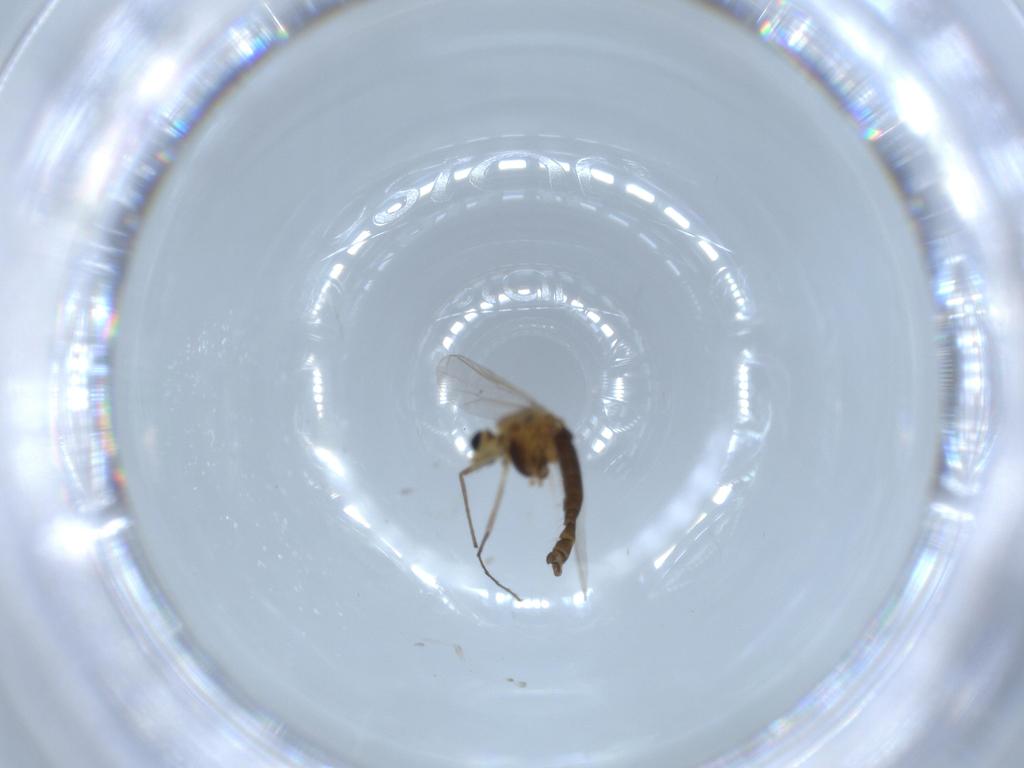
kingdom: Animalia
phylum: Arthropoda
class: Insecta
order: Diptera
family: Chironomidae
